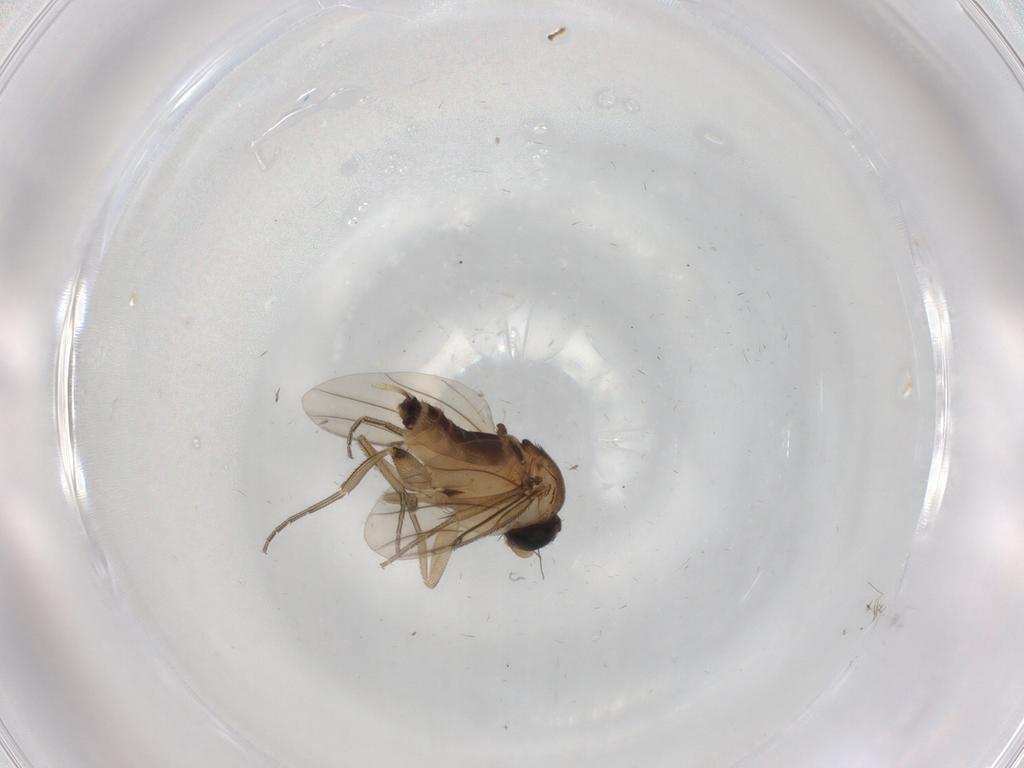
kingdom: Animalia
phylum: Arthropoda
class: Insecta
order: Diptera
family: Phoridae
